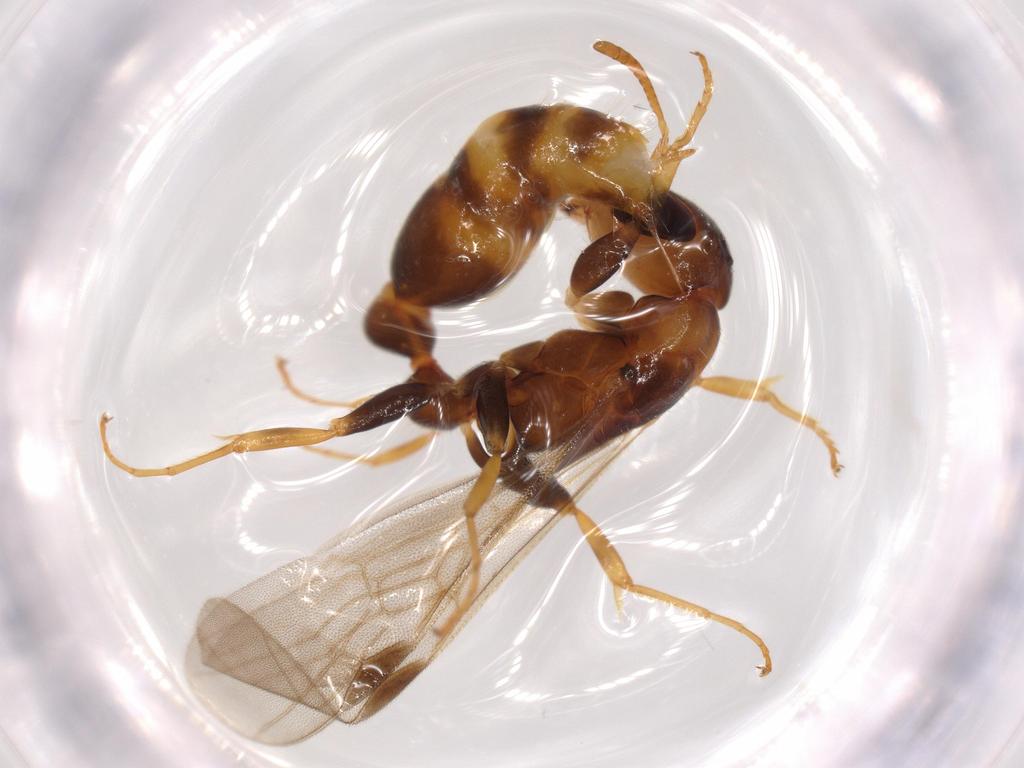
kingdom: Animalia
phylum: Arthropoda
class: Insecta
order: Hymenoptera
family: Formicidae
